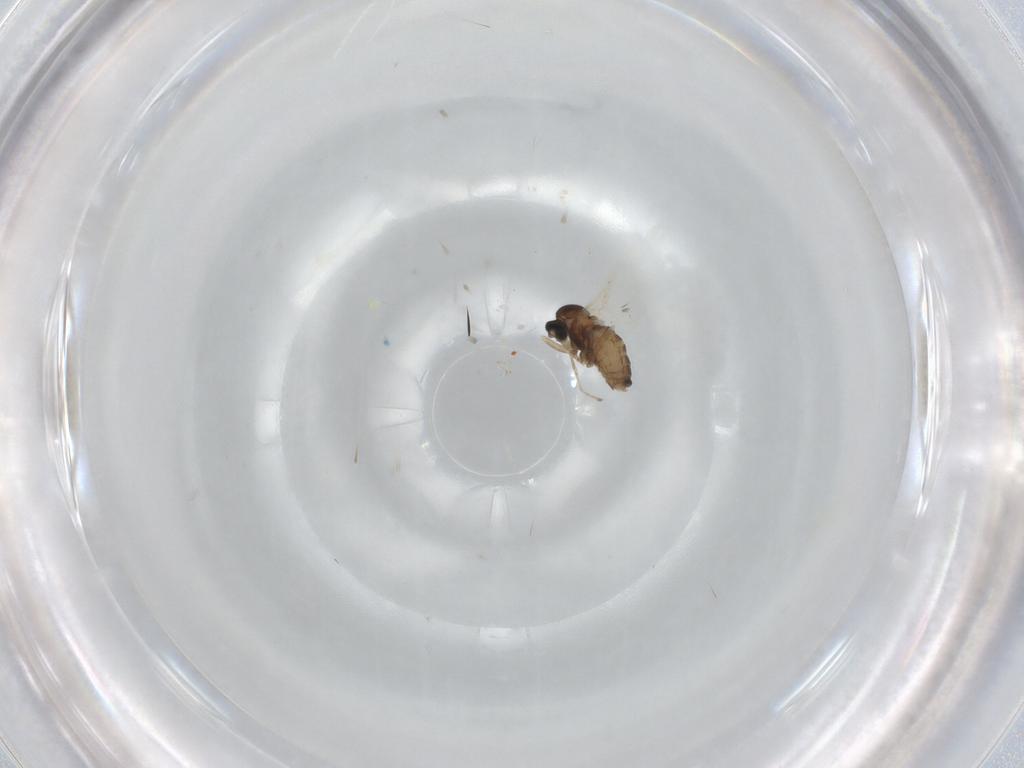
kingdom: Animalia
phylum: Arthropoda
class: Insecta
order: Diptera
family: Cecidomyiidae
